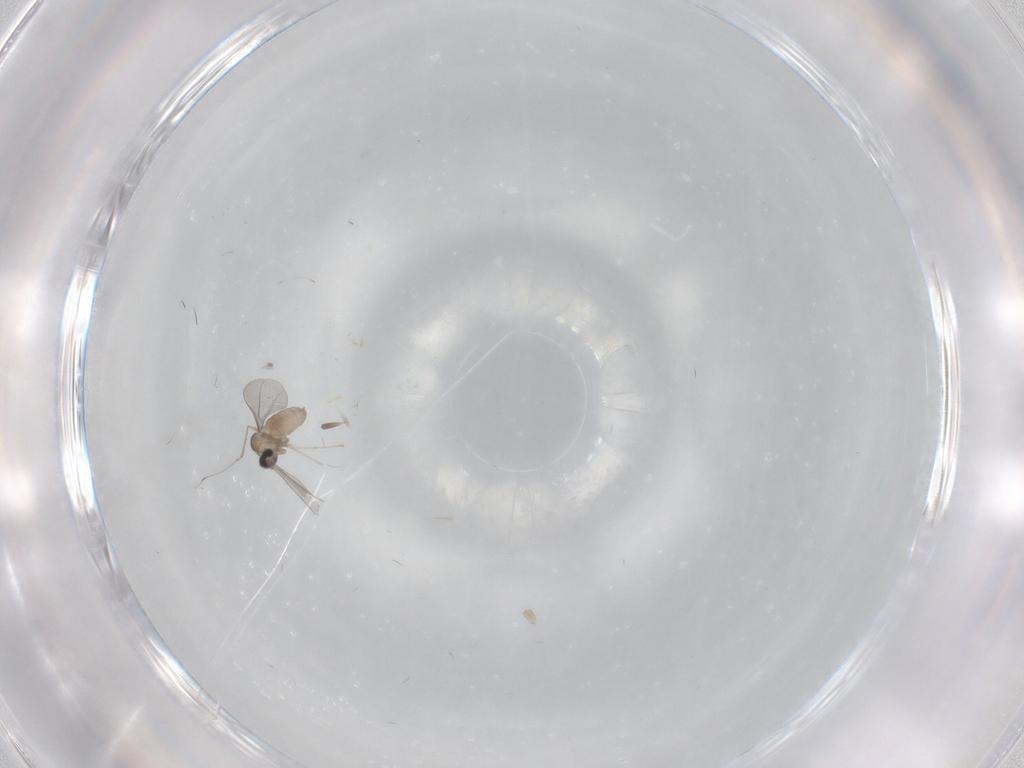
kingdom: Animalia
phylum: Arthropoda
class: Insecta
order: Diptera
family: Cecidomyiidae
